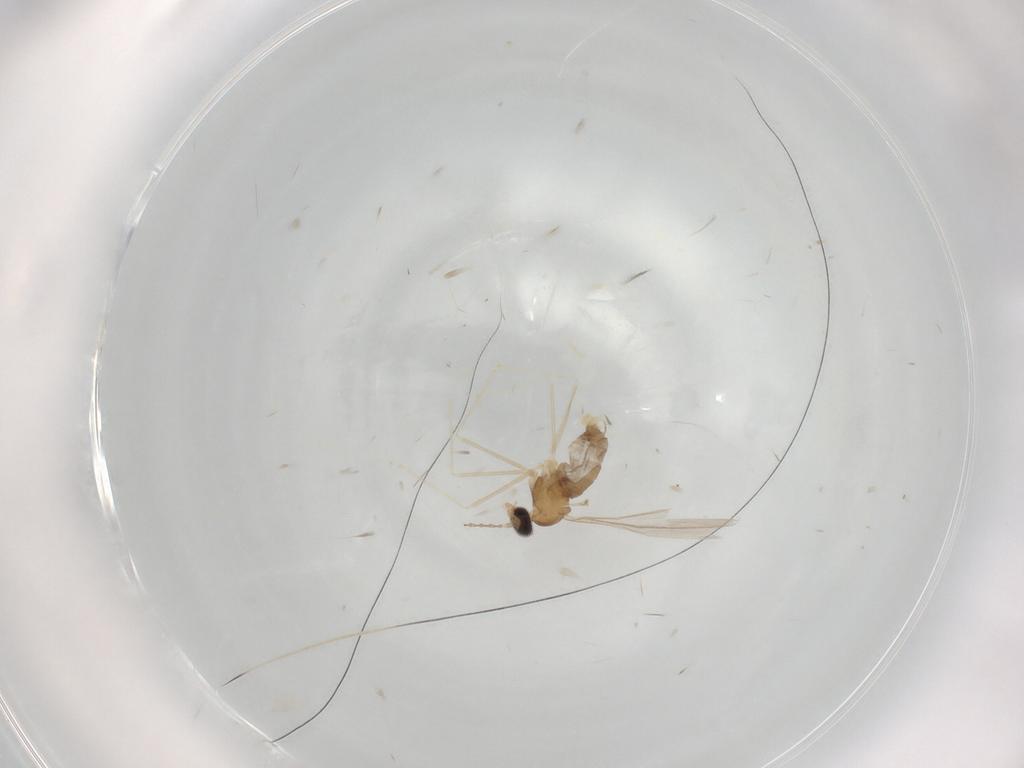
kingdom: Animalia
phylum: Arthropoda
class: Insecta
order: Diptera
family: Cecidomyiidae
